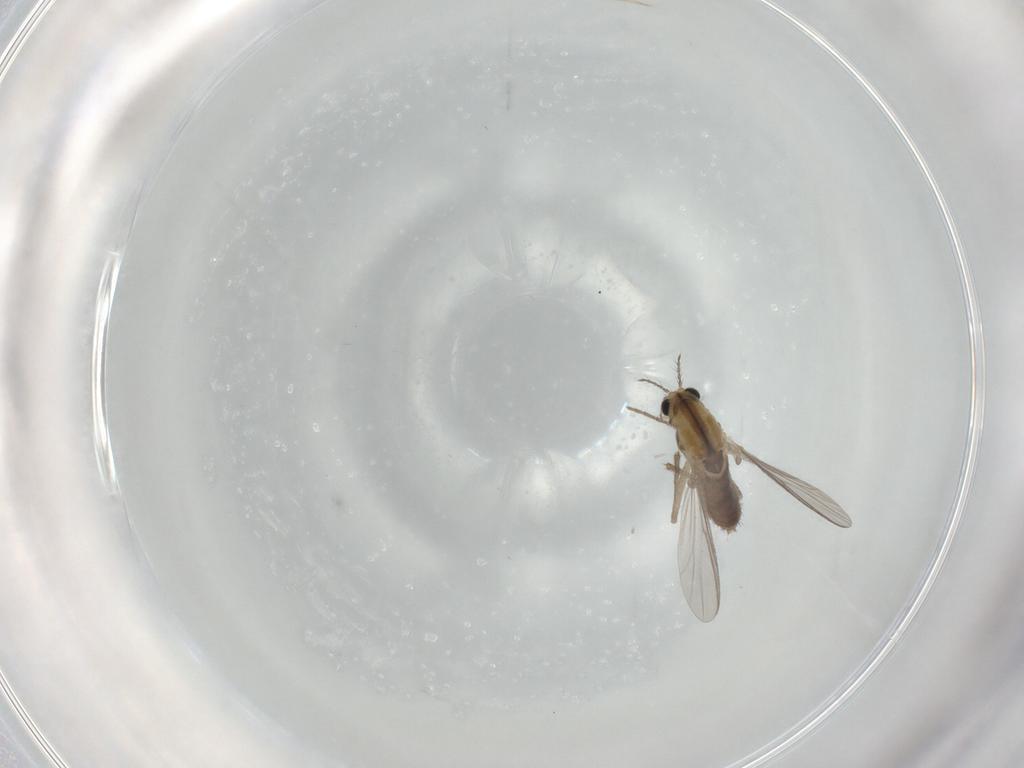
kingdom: Animalia
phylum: Arthropoda
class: Insecta
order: Diptera
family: Chironomidae
